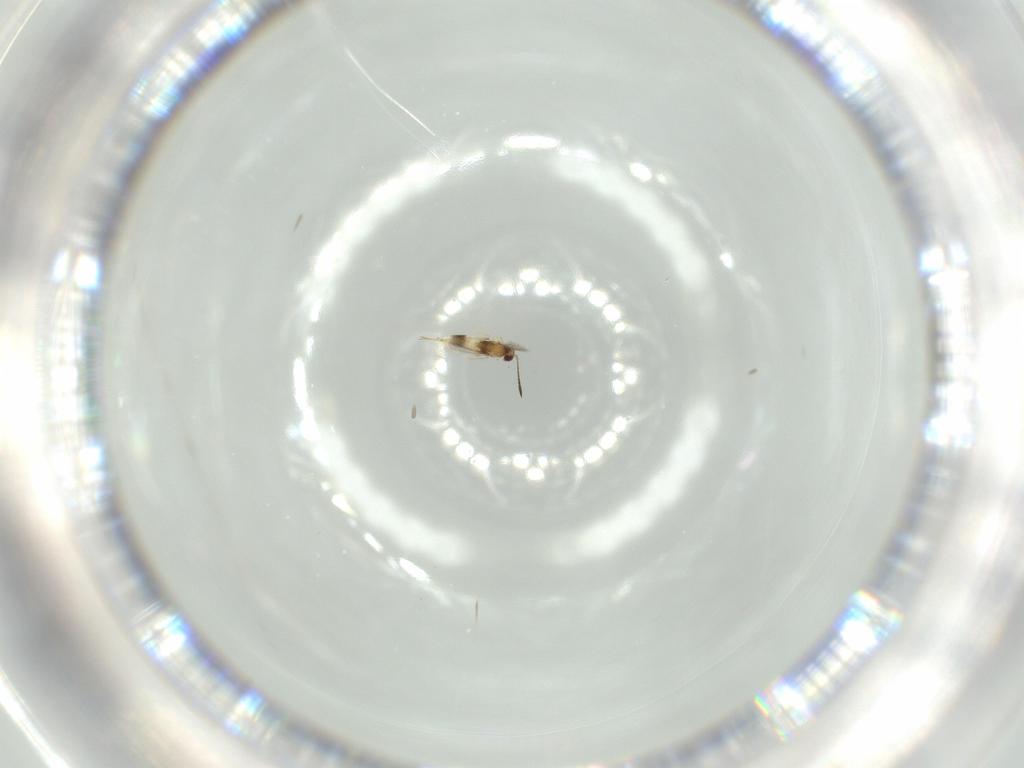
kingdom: Animalia
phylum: Arthropoda
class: Insecta
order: Hymenoptera
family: Mymaridae
